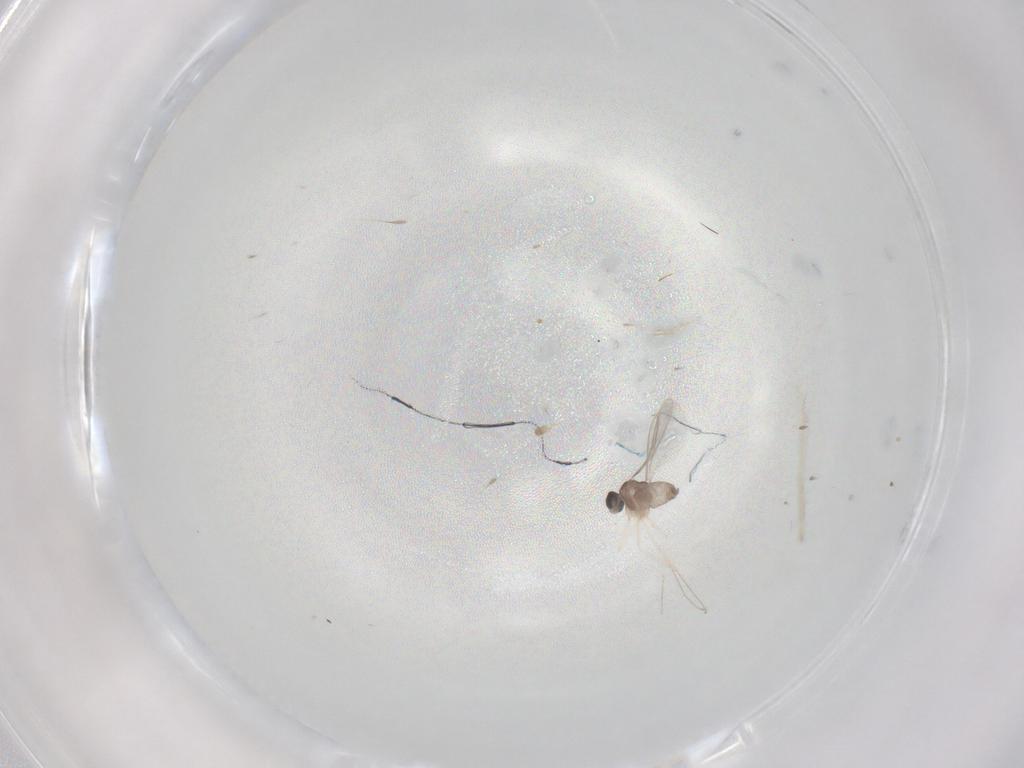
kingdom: Animalia
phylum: Arthropoda
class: Insecta
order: Diptera
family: Cecidomyiidae
